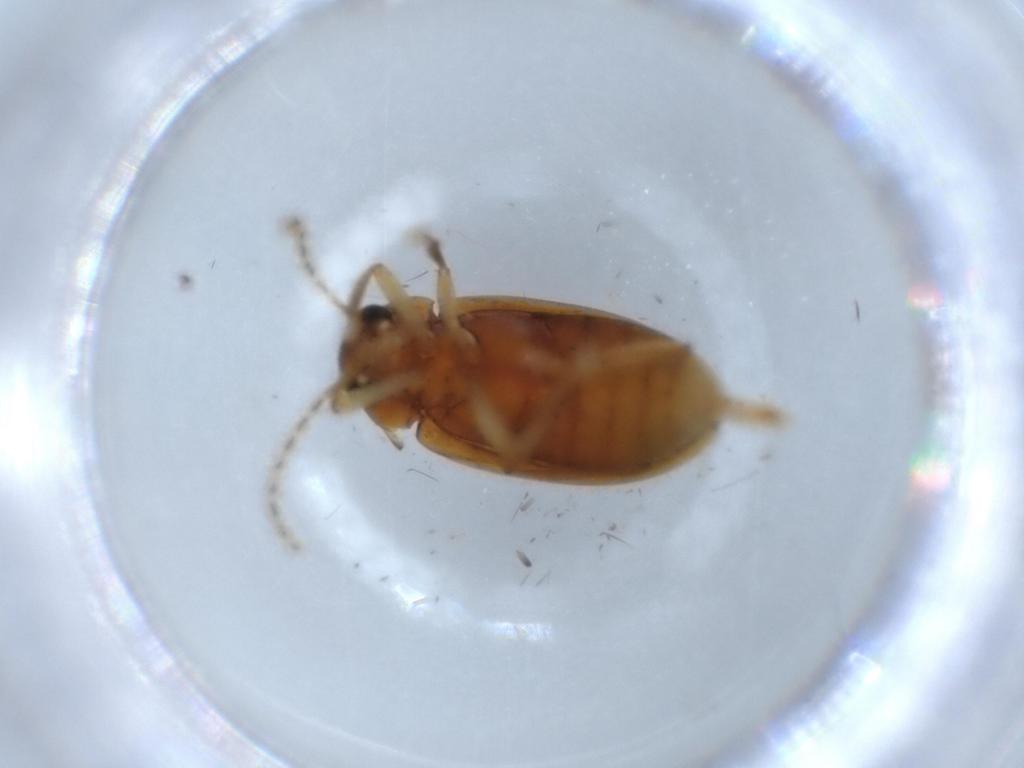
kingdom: Animalia
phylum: Arthropoda
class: Insecta
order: Coleoptera
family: Ptilodactylidae
